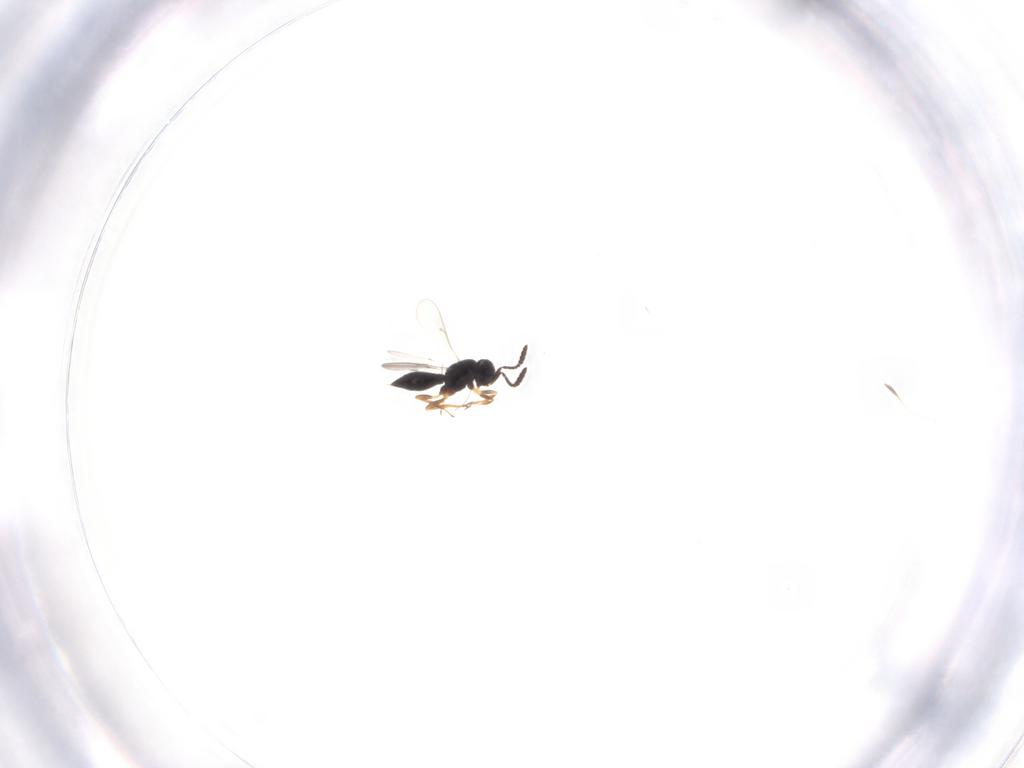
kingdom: Animalia
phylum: Arthropoda
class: Insecta
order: Hymenoptera
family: Scelionidae
